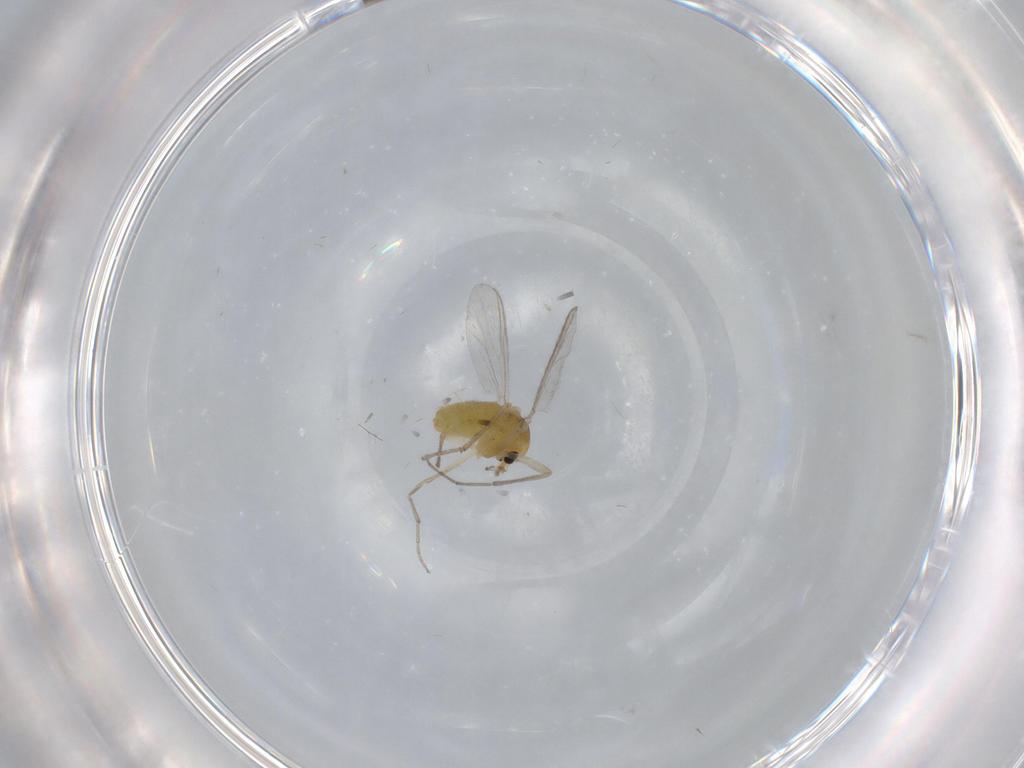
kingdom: Animalia
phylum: Arthropoda
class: Insecta
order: Diptera
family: Chironomidae
